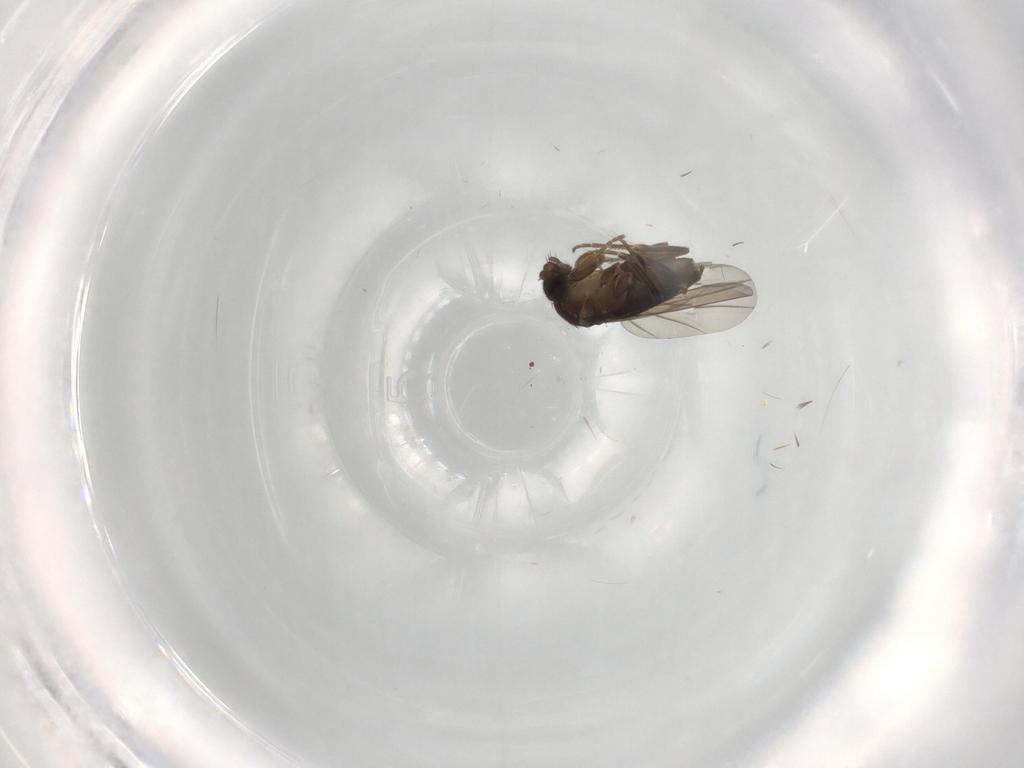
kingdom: Animalia
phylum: Arthropoda
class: Insecta
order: Diptera
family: Phoridae
